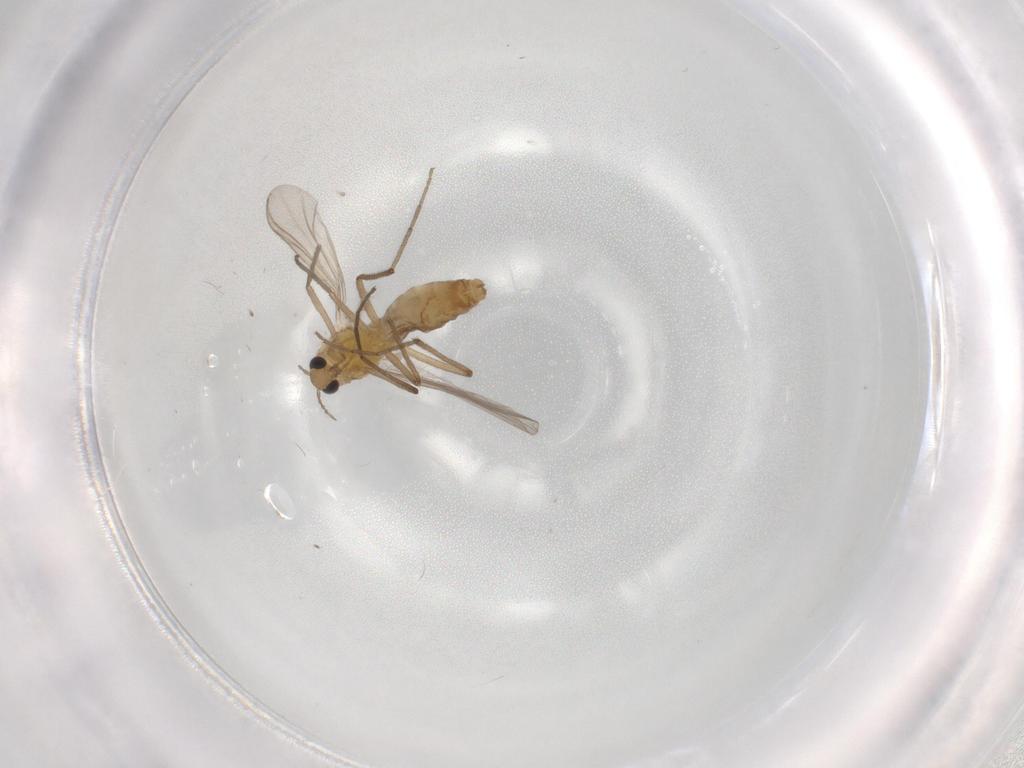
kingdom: Animalia
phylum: Arthropoda
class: Insecta
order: Diptera
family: Chironomidae
